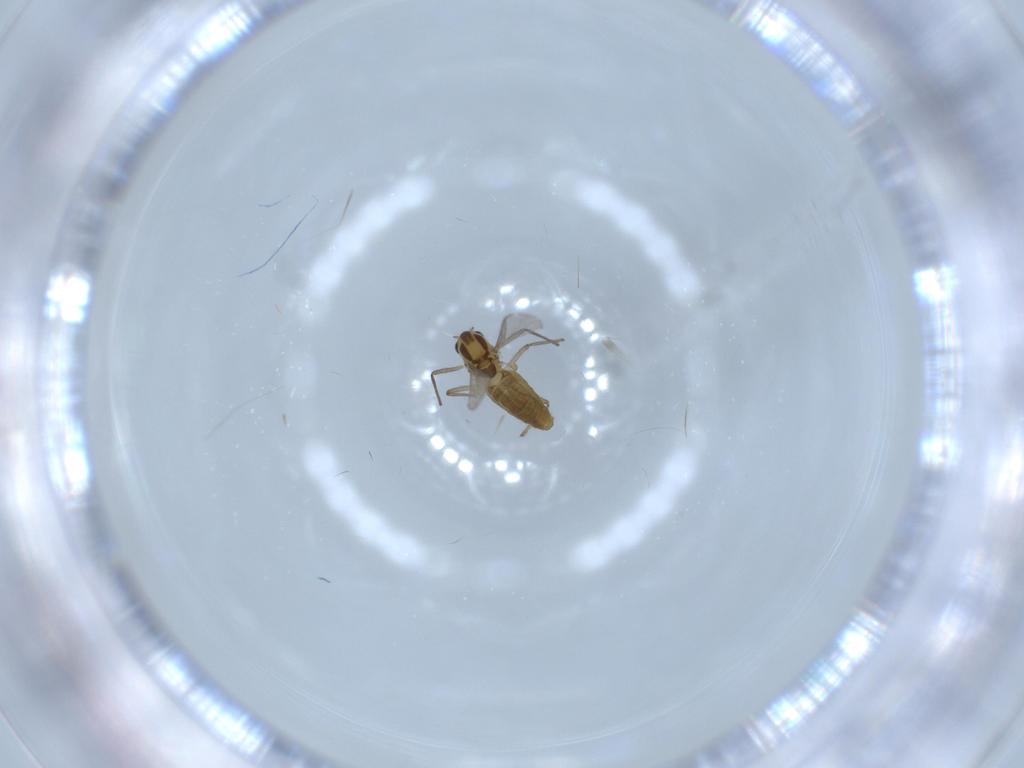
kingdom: Animalia
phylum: Arthropoda
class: Insecta
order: Diptera
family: Chironomidae
